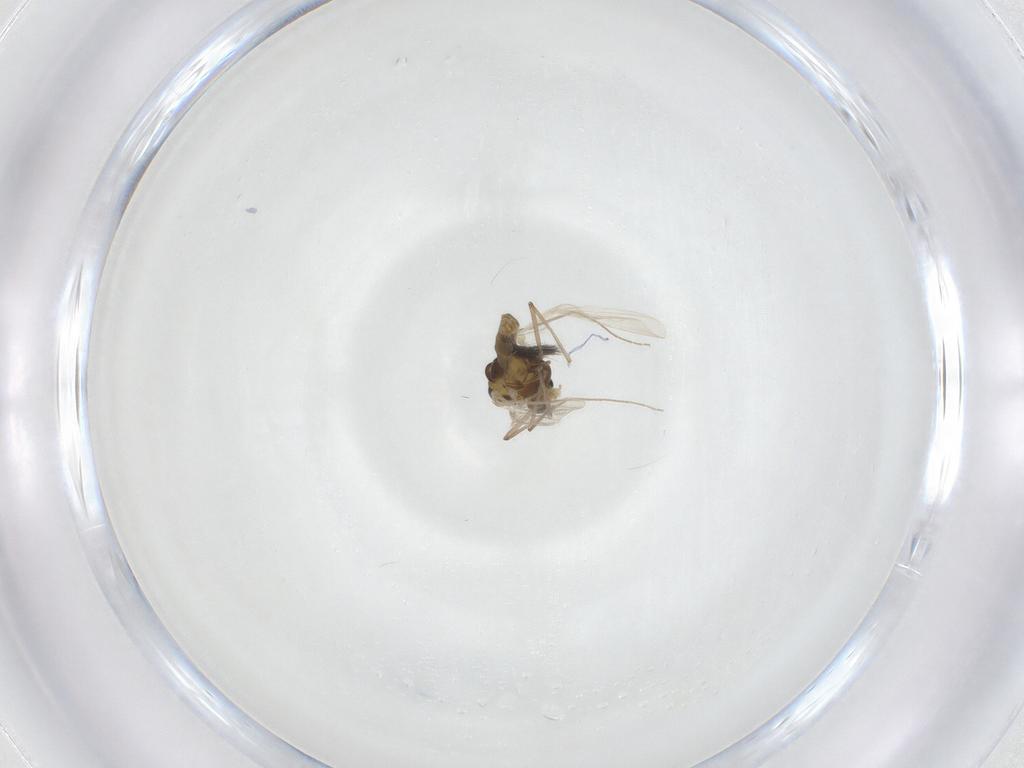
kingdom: Animalia
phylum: Arthropoda
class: Insecta
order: Diptera
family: Chironomidae
